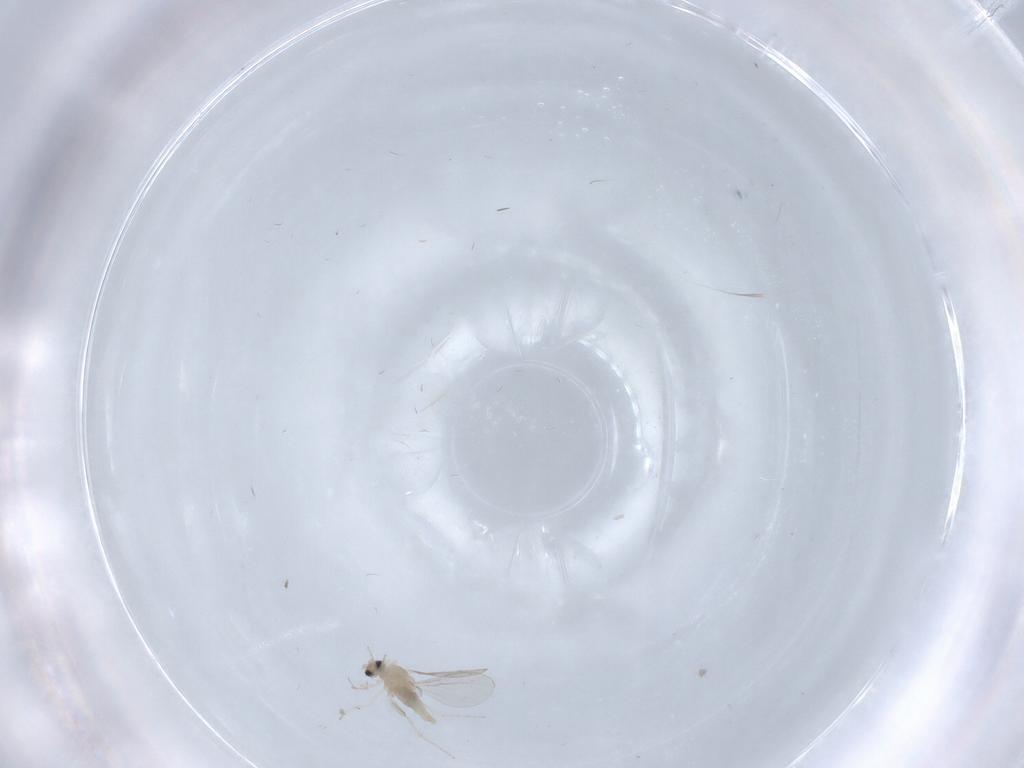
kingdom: Animalia
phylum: Arthropoda
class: Insecta
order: Diptera
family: Mycetophilidae
